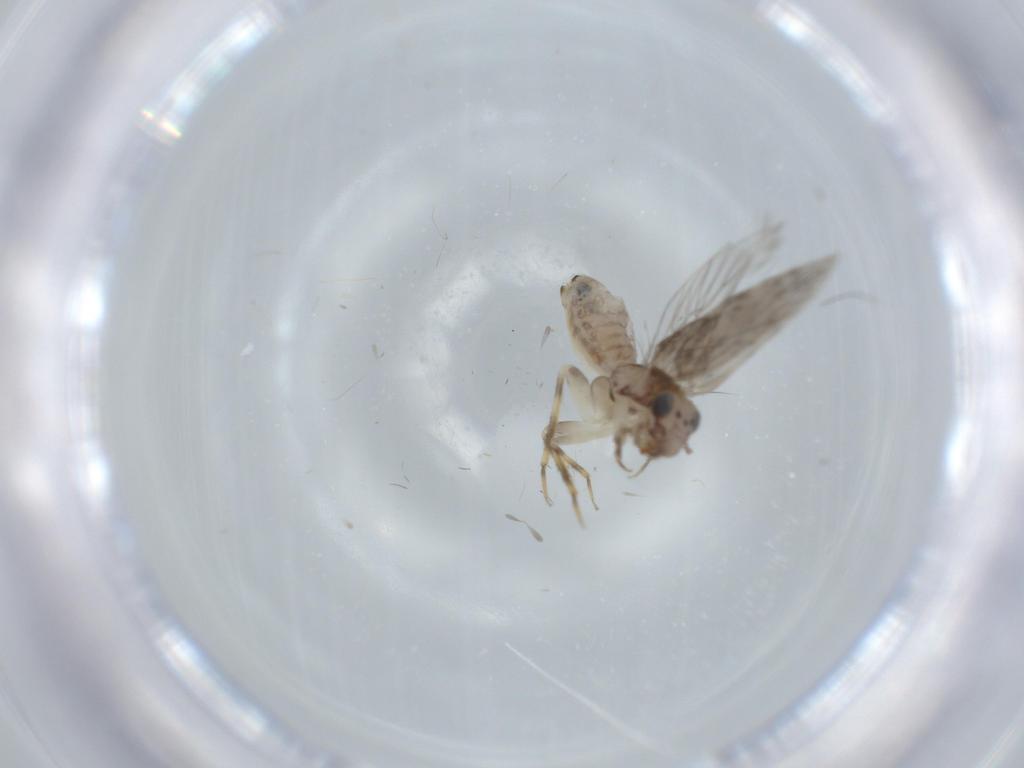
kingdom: Animalia
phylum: Arthropoda
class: Insecta
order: Psocodea
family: Lepidopsocidae
